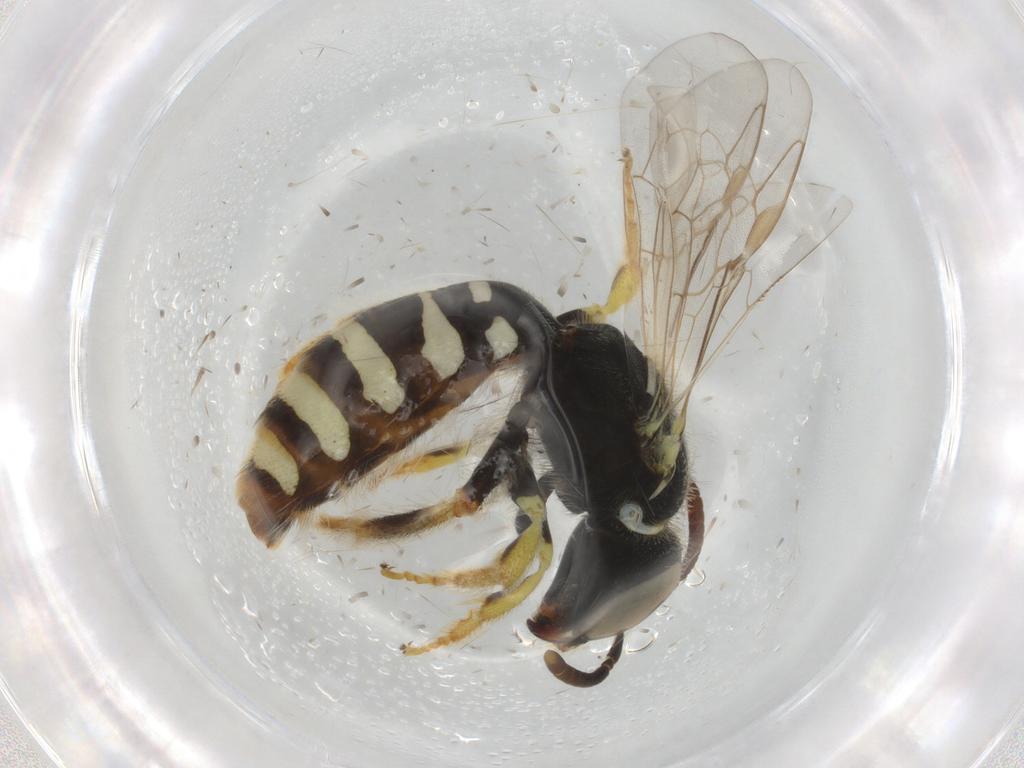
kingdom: Animalia
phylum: Arthropoda
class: Insecta
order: Hymenoptera
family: Halictidae
